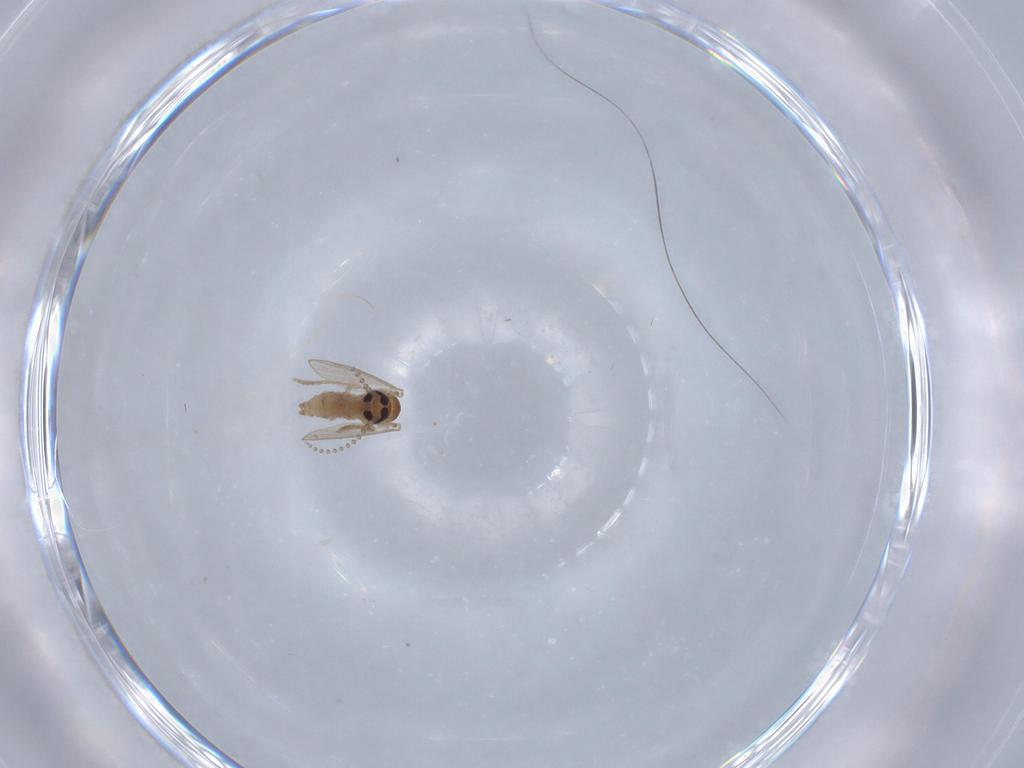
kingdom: Animalia
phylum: Arthropoda
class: Insecta
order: Diptera
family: Psychodidae
